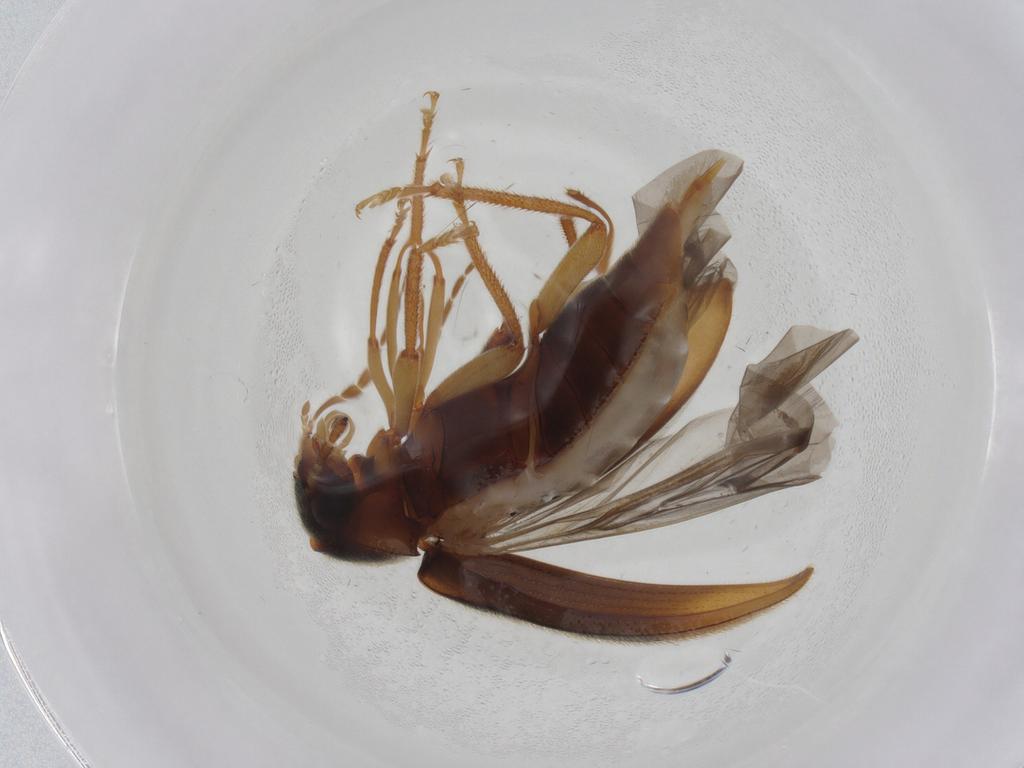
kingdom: Animalia
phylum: Arthropoda
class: Insecta
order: Coleoptera
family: Ptilodactylidae
